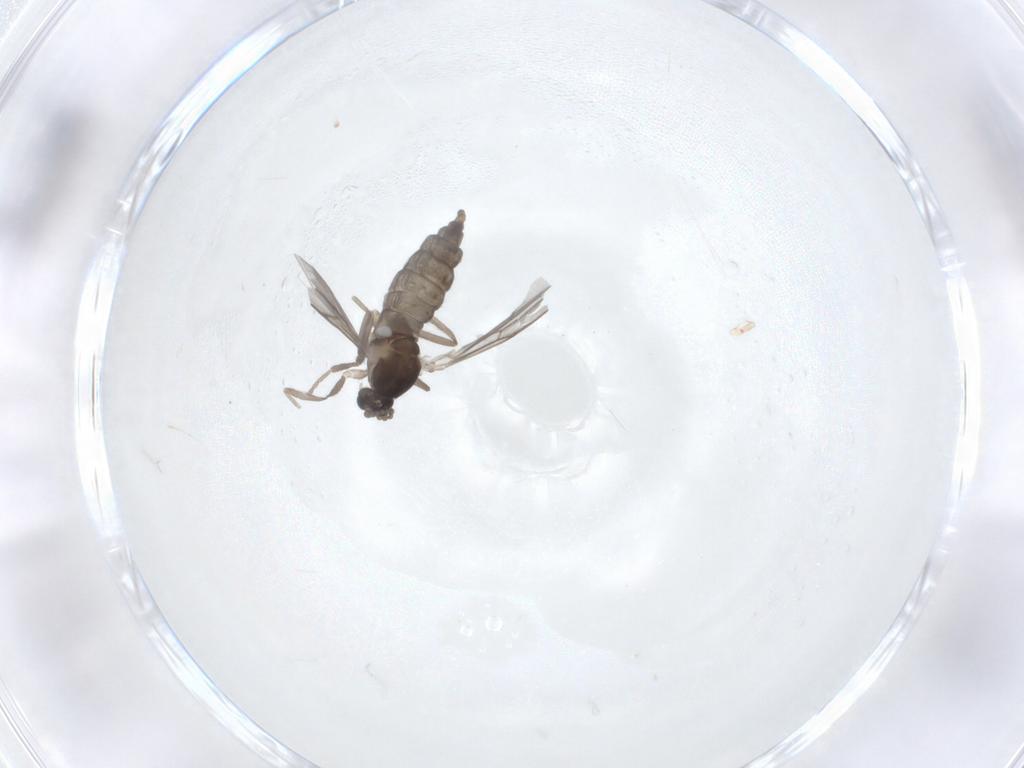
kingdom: Animalia
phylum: Arthropoda
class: Insecta
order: Diptera
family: Cecidomyiidae
